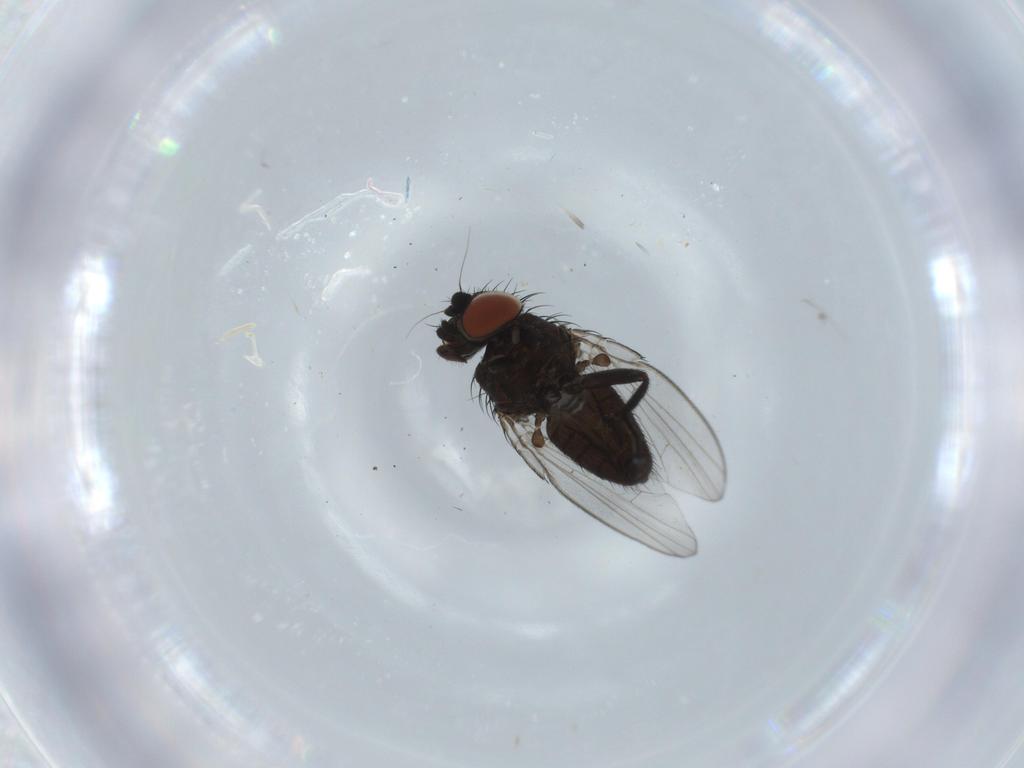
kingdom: Animalia
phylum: Arthropoda
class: Insecta
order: Diptera
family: Milichiidae
